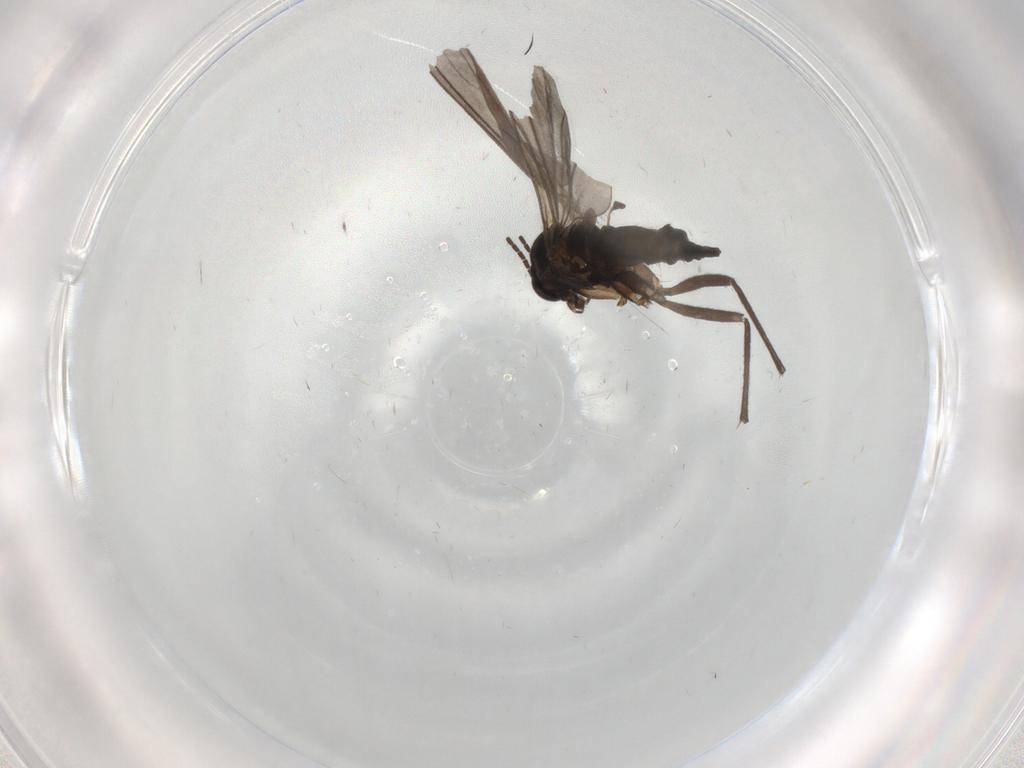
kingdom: Animalia
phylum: Arthropoda
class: Insecta
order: Diptera
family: Sciaridae
